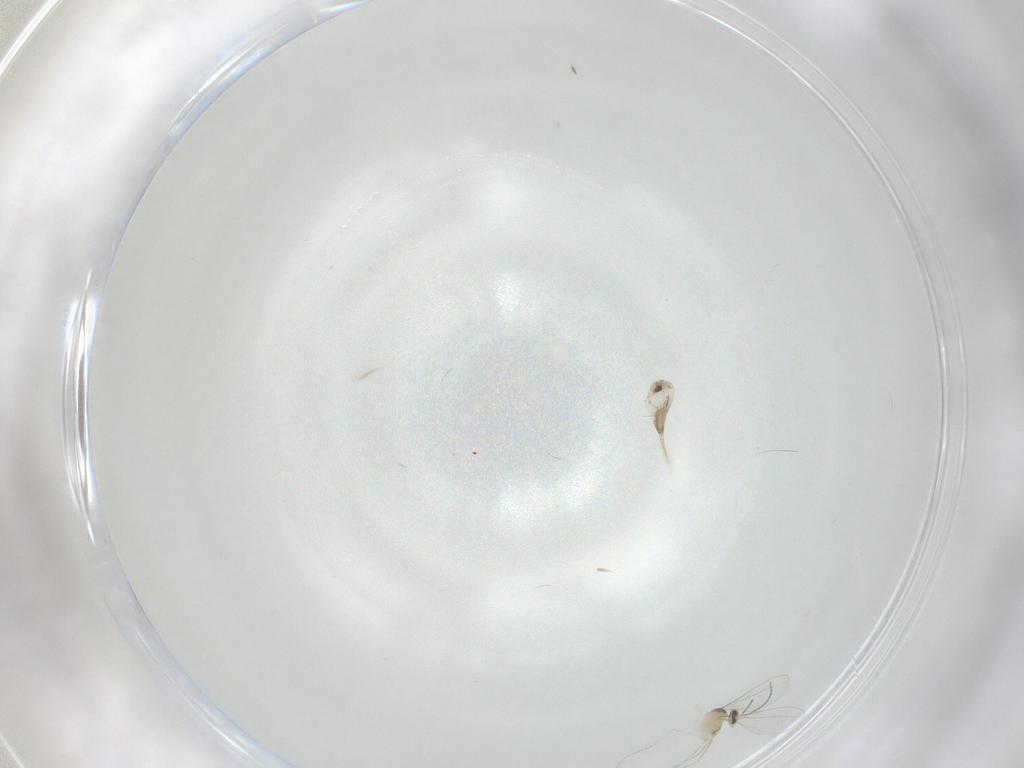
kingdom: Animalia
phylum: Arthropoda
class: Insecta
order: Diptera
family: Cecidomyiidae
